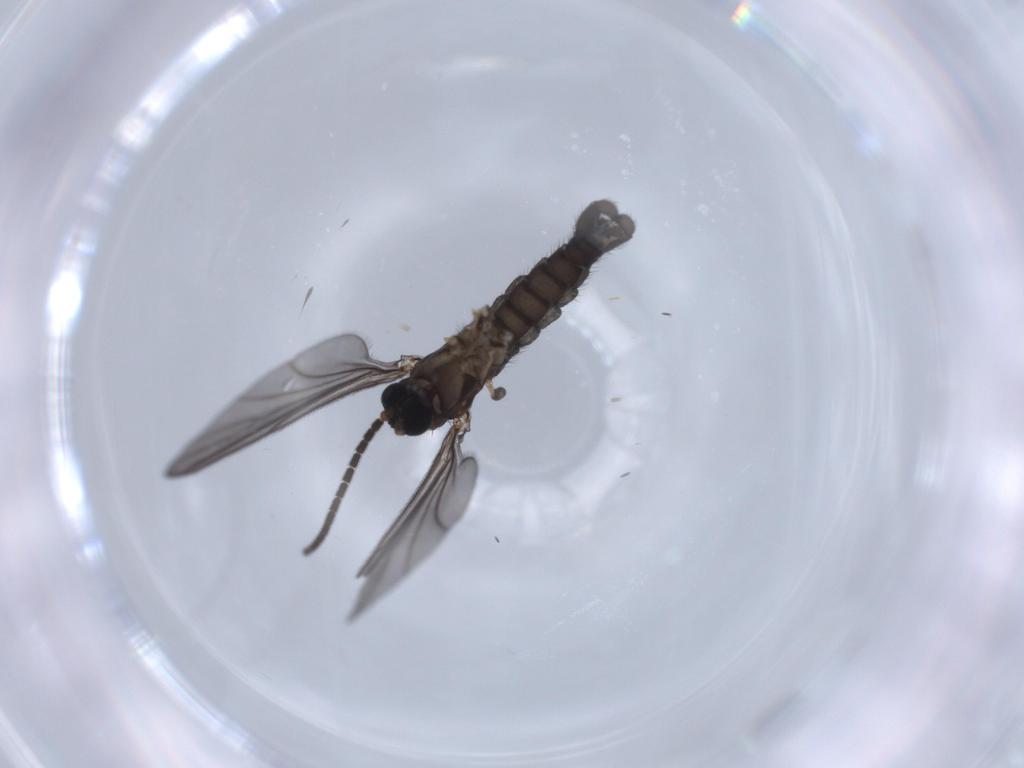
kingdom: Animalia
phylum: Arthropoda
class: Insecta
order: Diptera
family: Sciaridae
